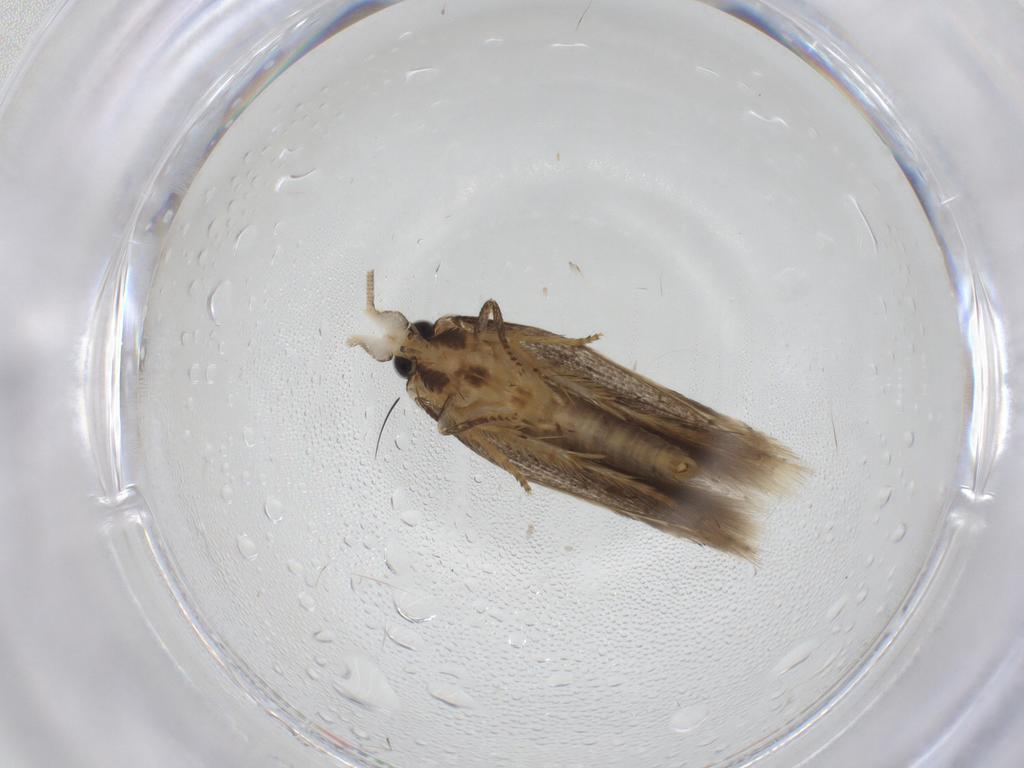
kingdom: Animalia
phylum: Arthropoda
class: Insecta
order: Lepidoptera
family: Opostegidae
